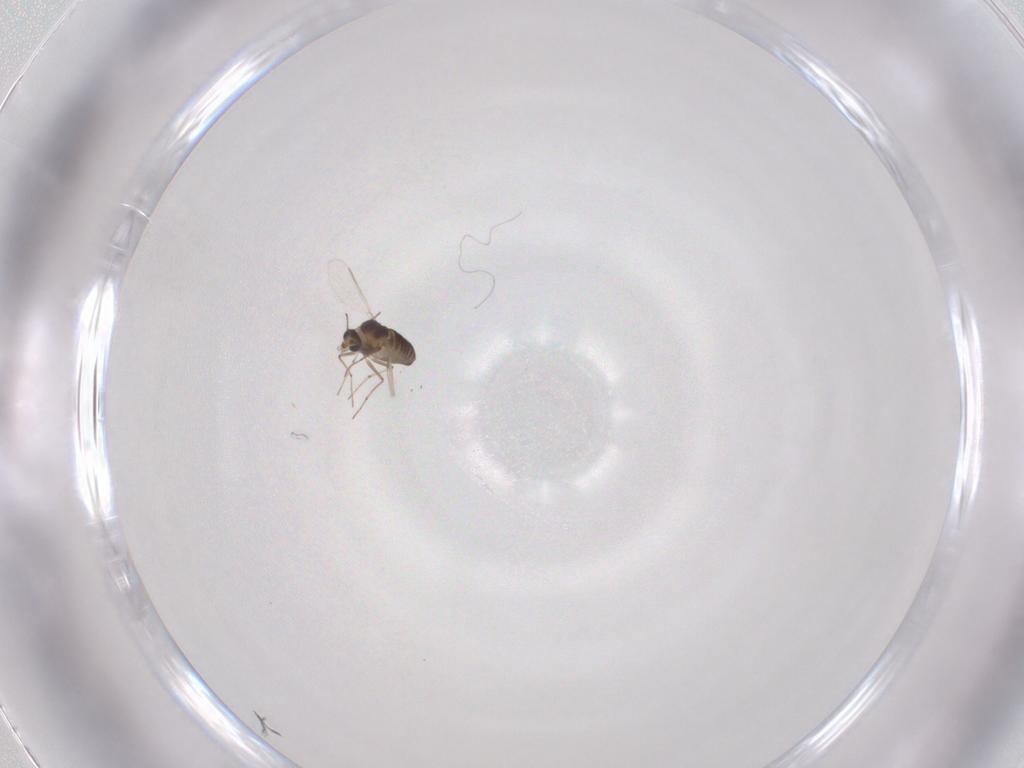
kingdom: Animalia
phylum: Arthropoda
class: Insecta
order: Diptera
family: Chironomidae
